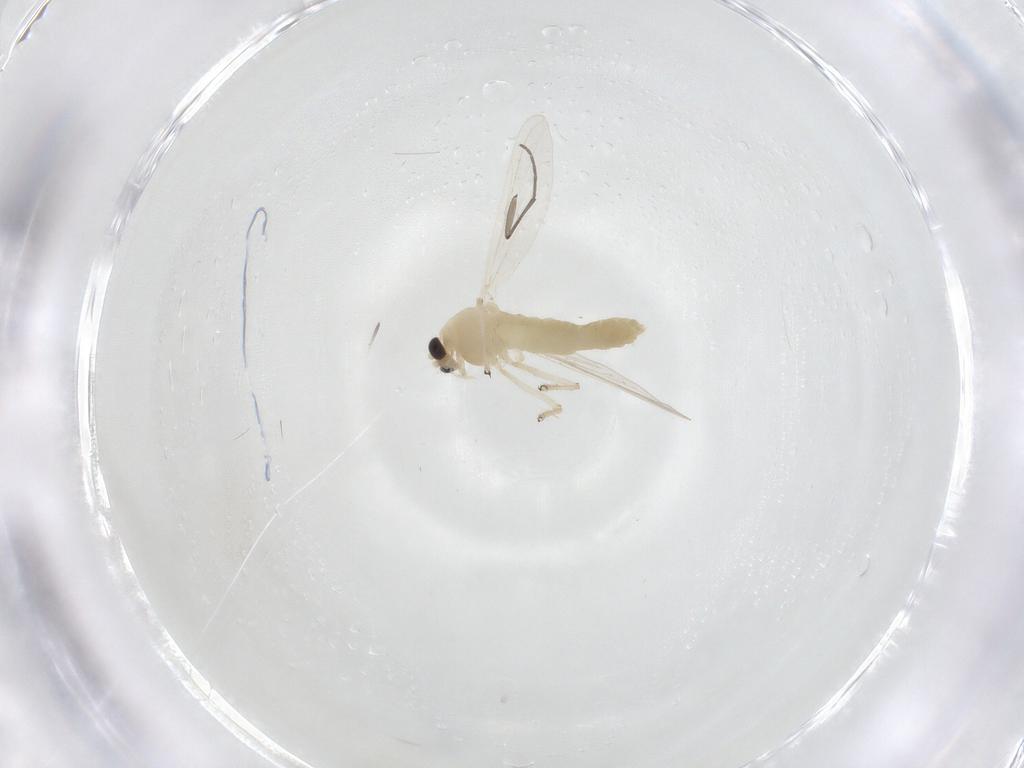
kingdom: Animalia
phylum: Arthropoda
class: Insecta
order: Diptera
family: Chironomidae
